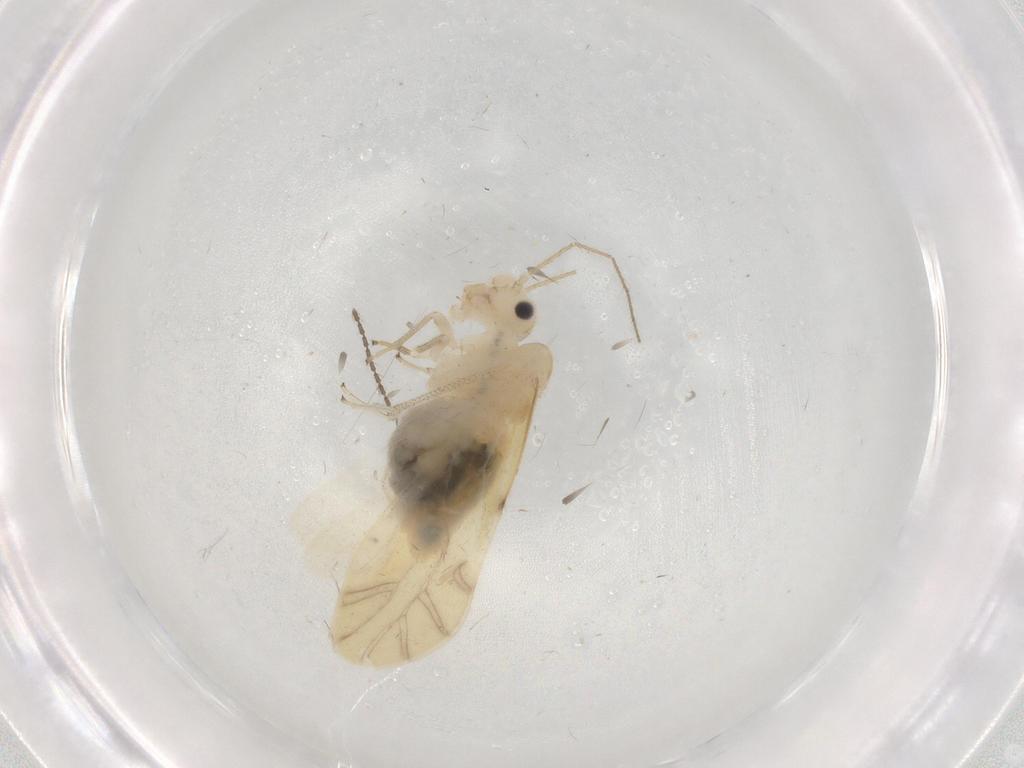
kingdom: Animalia
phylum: Arthropoda
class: Insecta
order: Psocodea
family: Caeciliusidae
